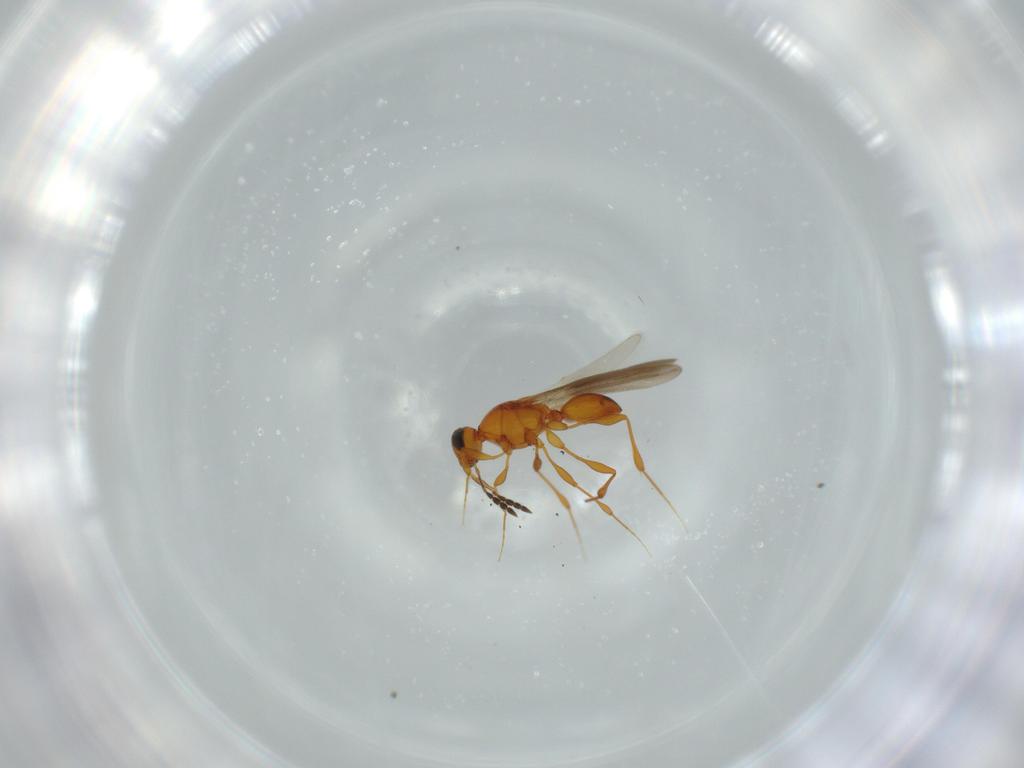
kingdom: Animalia
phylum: Arthropoda
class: Insecta
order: Hymenoptera
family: Platygastridae
